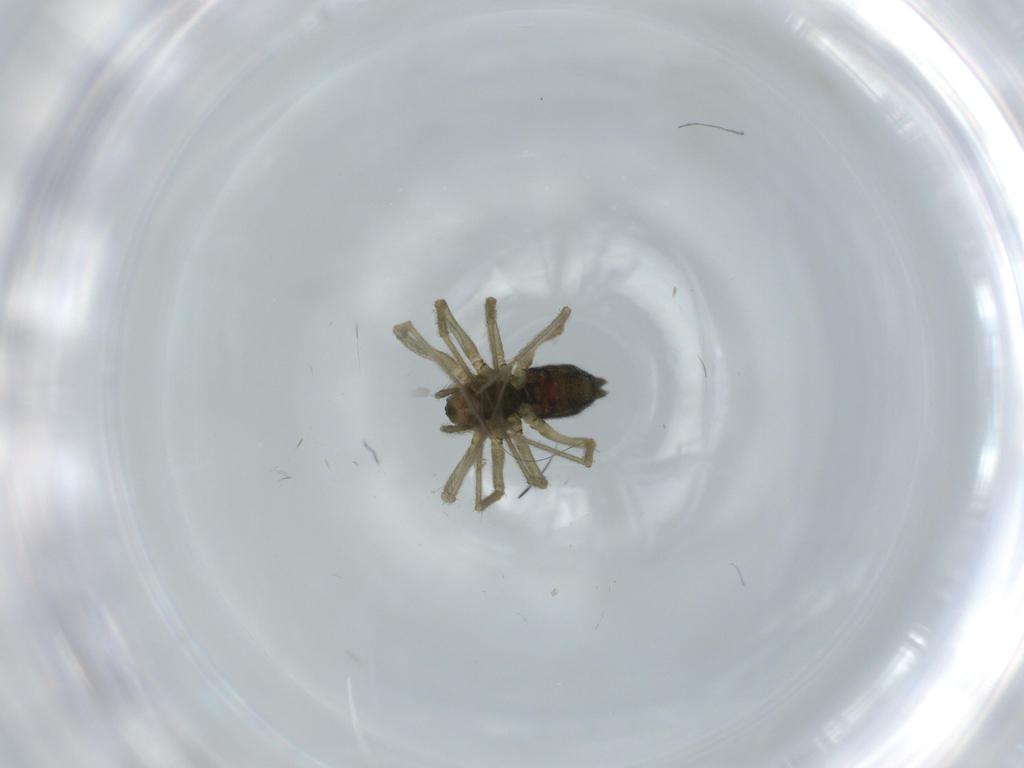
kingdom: Animalia
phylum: Arthropoda
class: Arachnida
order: Araneae
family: Linyphiidae
